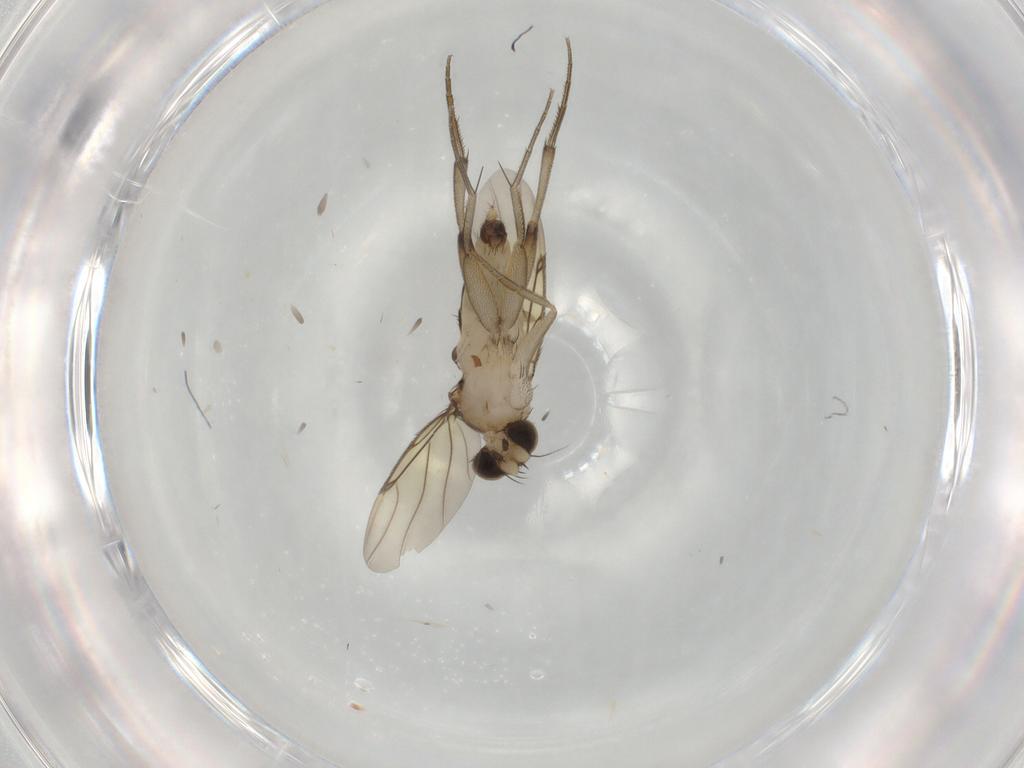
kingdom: Animalia
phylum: Arthropoda
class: Insecta
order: Diptera
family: Phoridae
